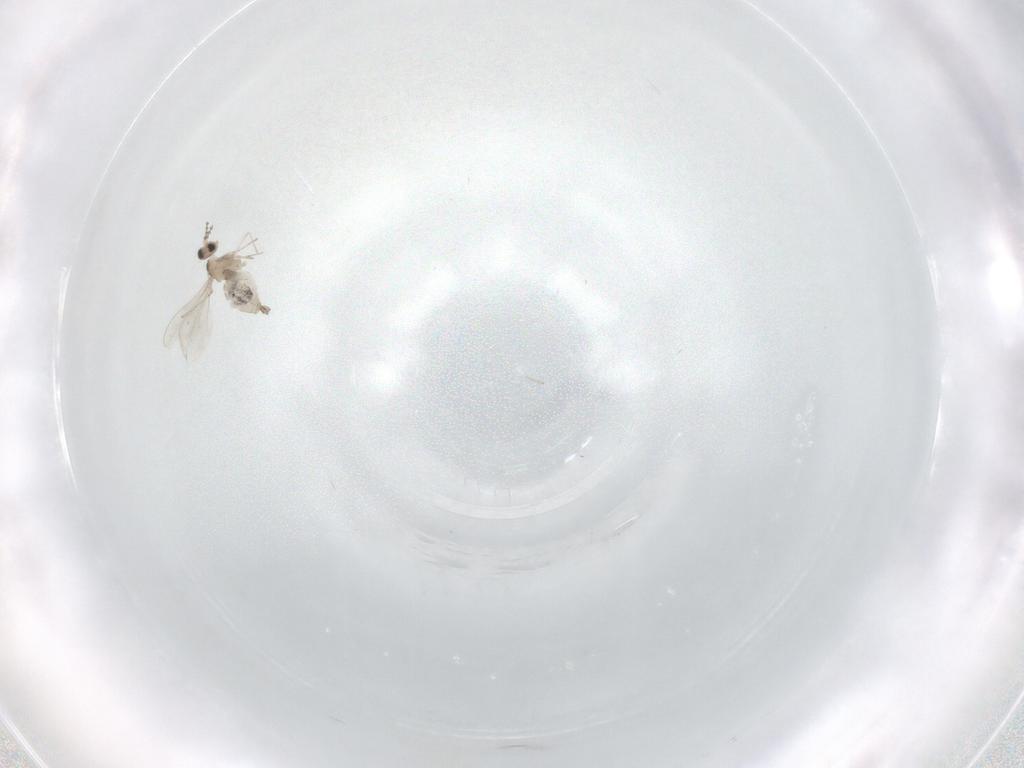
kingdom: Animalia
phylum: Arthropoda
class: Insecta
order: Diptera
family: Cecidomyiidae
